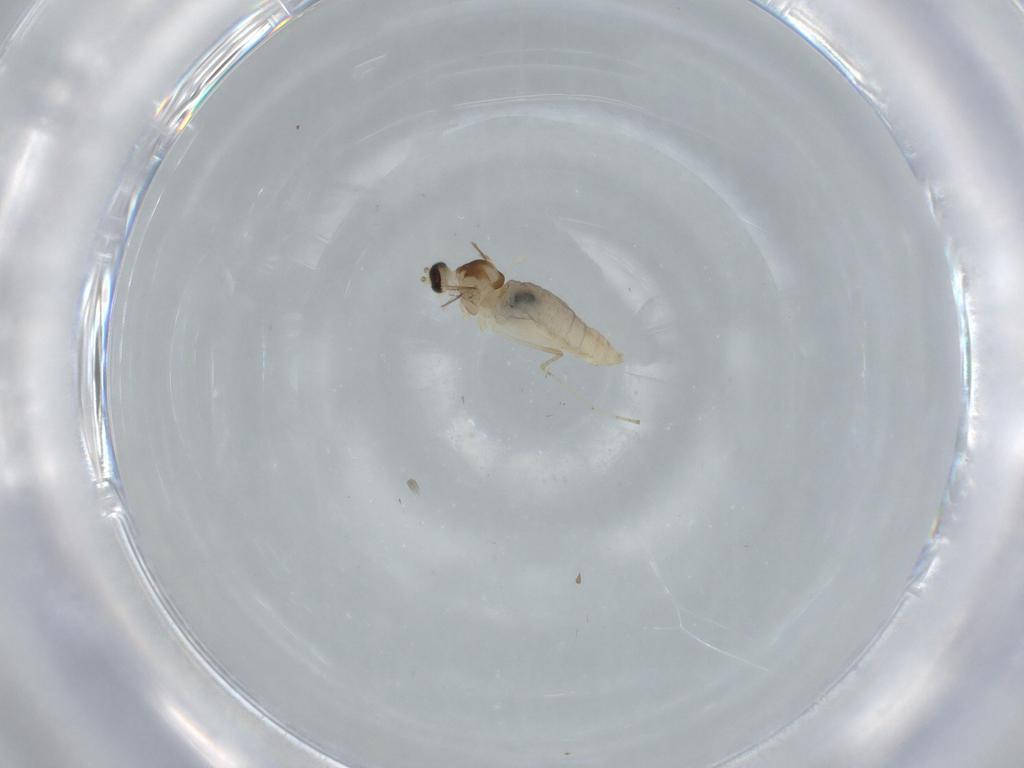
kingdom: Animalia
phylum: Arthropoda
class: Insecta
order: Diptera
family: Cecidomyiidae
